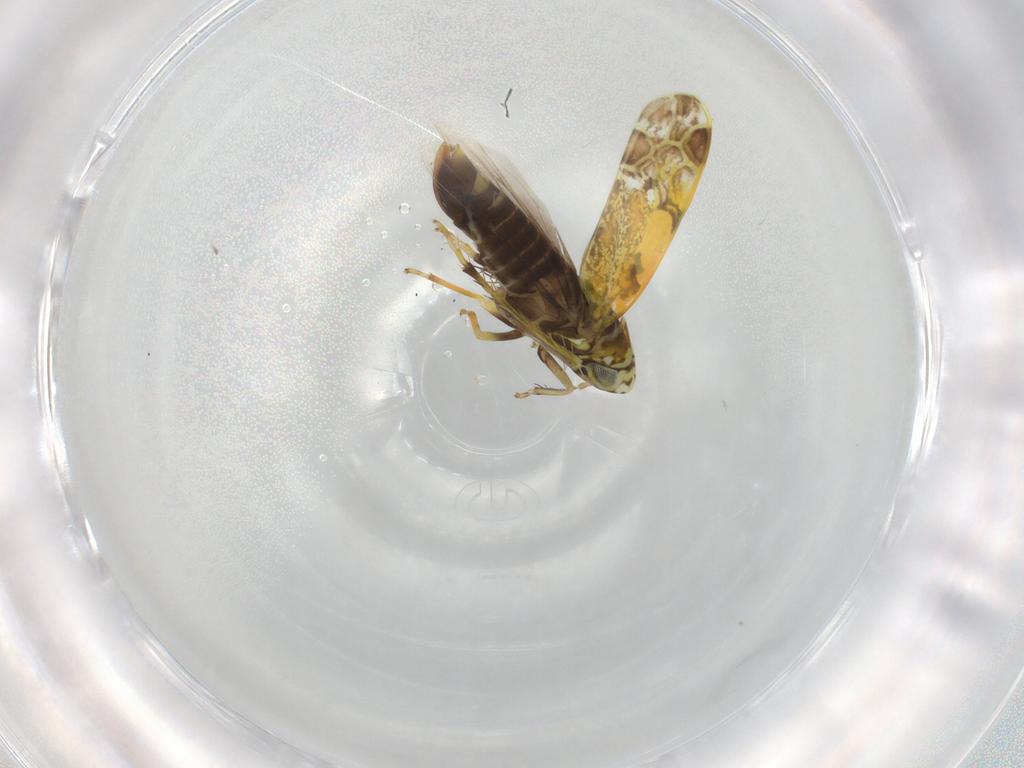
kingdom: Animalia
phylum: Arthropoda
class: Insecta
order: Hemiptera
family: Cicadellidae
